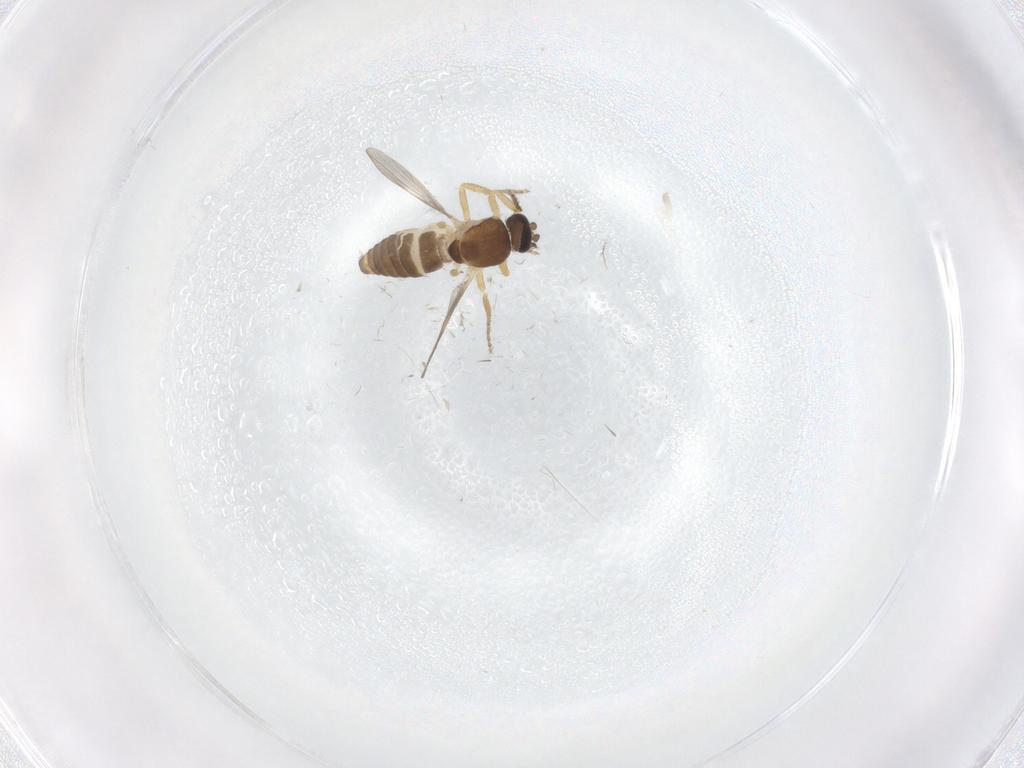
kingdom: Animalia
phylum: Arthropoda
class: Insecta
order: Diptera
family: Ceratopogonidae
